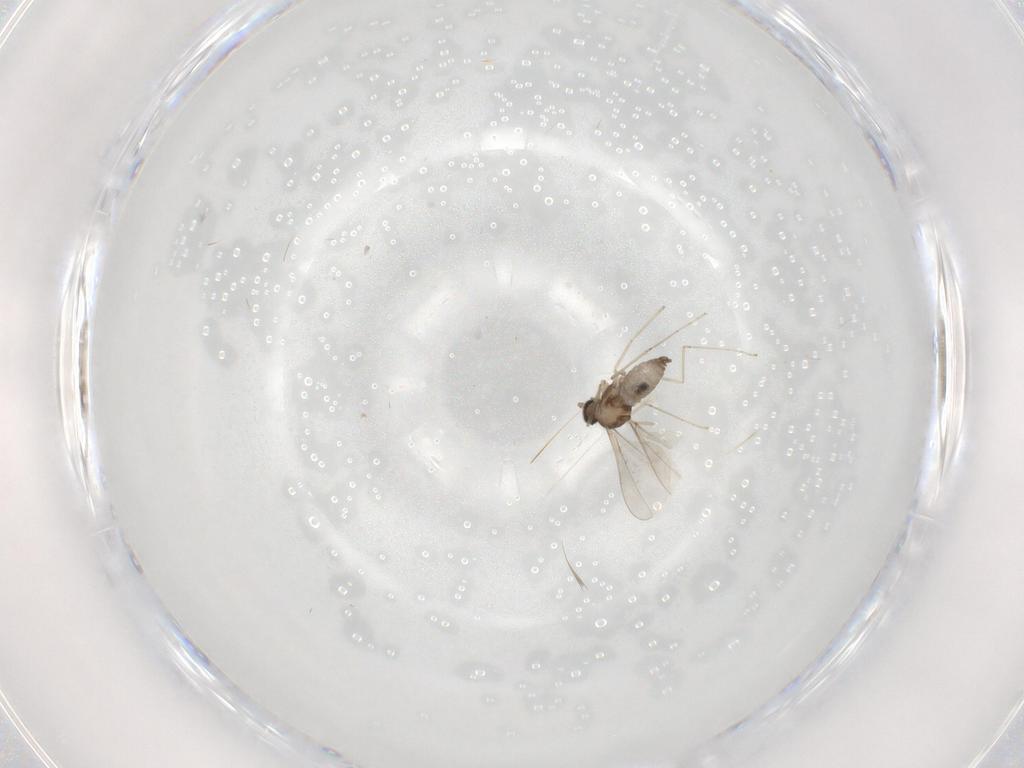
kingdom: Animalia
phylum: Arthropoda
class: Insecta
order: Diptera
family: Cecidomyiidae
